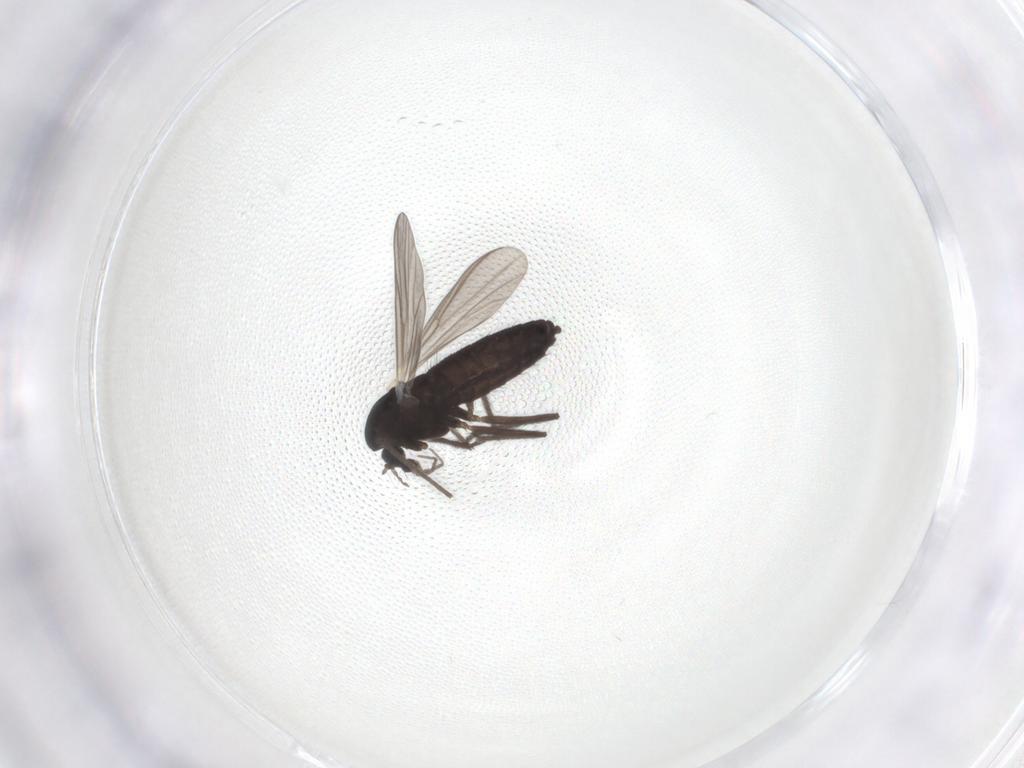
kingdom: Animalia
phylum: Arthropoda
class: Insecta
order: Diptera
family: Chironomidae
